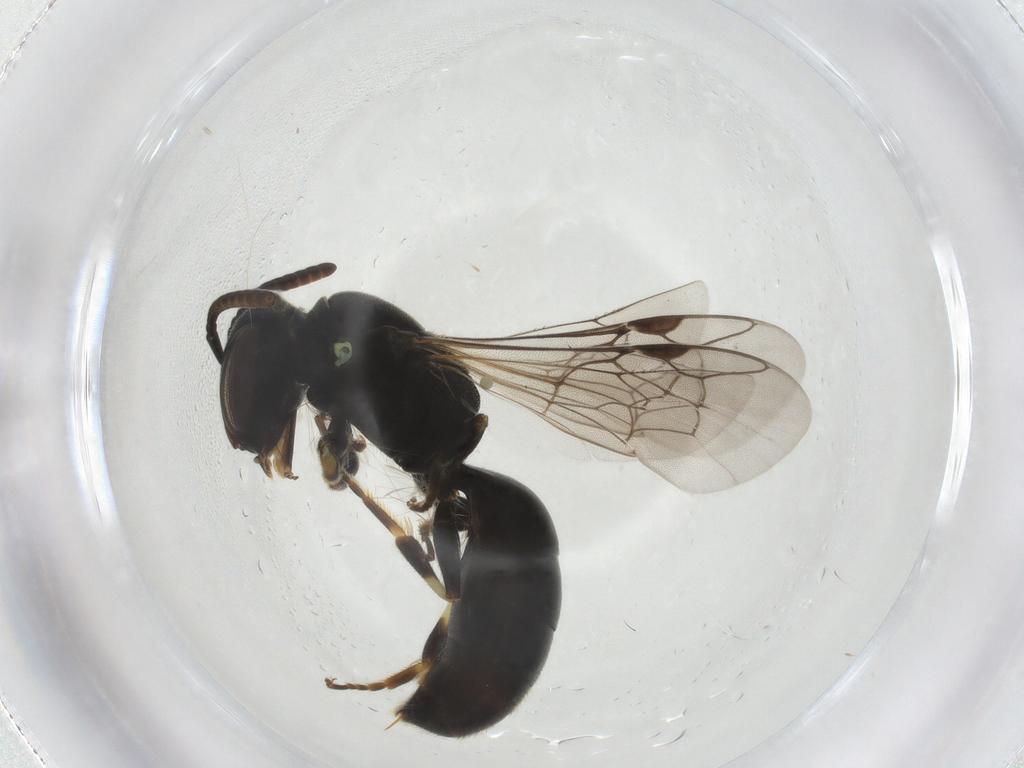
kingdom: Animalia
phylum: Arthropoda
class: Insecta
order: Hymenoptera
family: Colletidae
